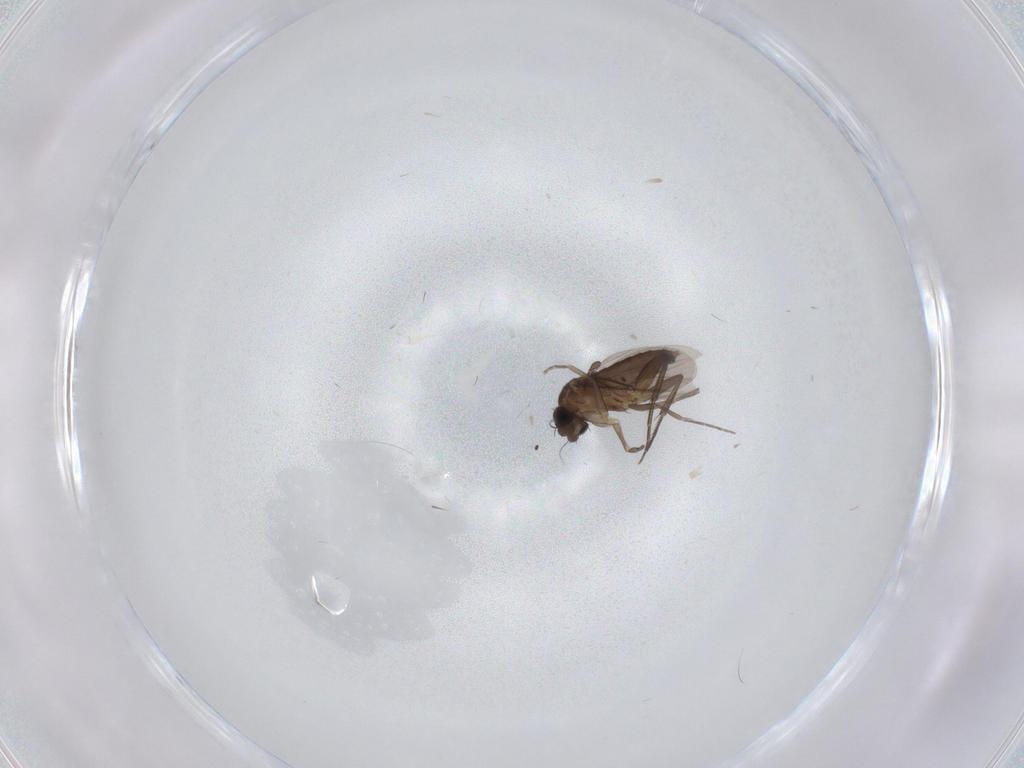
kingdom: Animalia
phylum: Arthropoda
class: Insecta
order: Diptera
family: Phoridae
